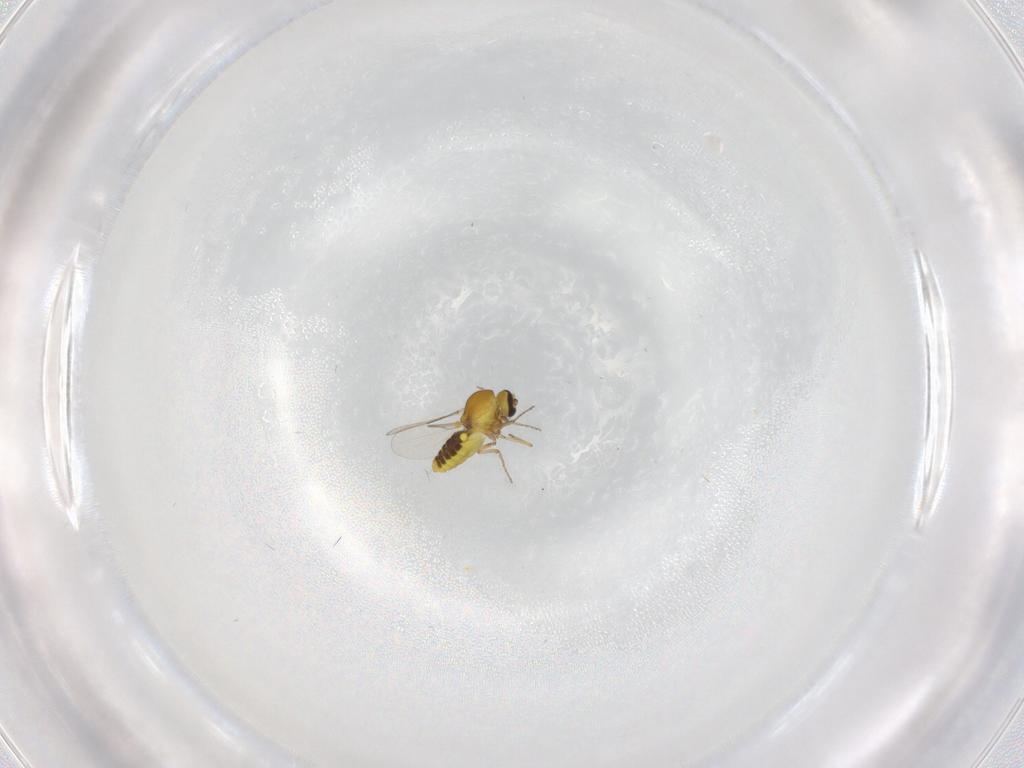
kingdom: Animalia
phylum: Arthropoda
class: Insecta
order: Diptera
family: Ceratopogonidae
